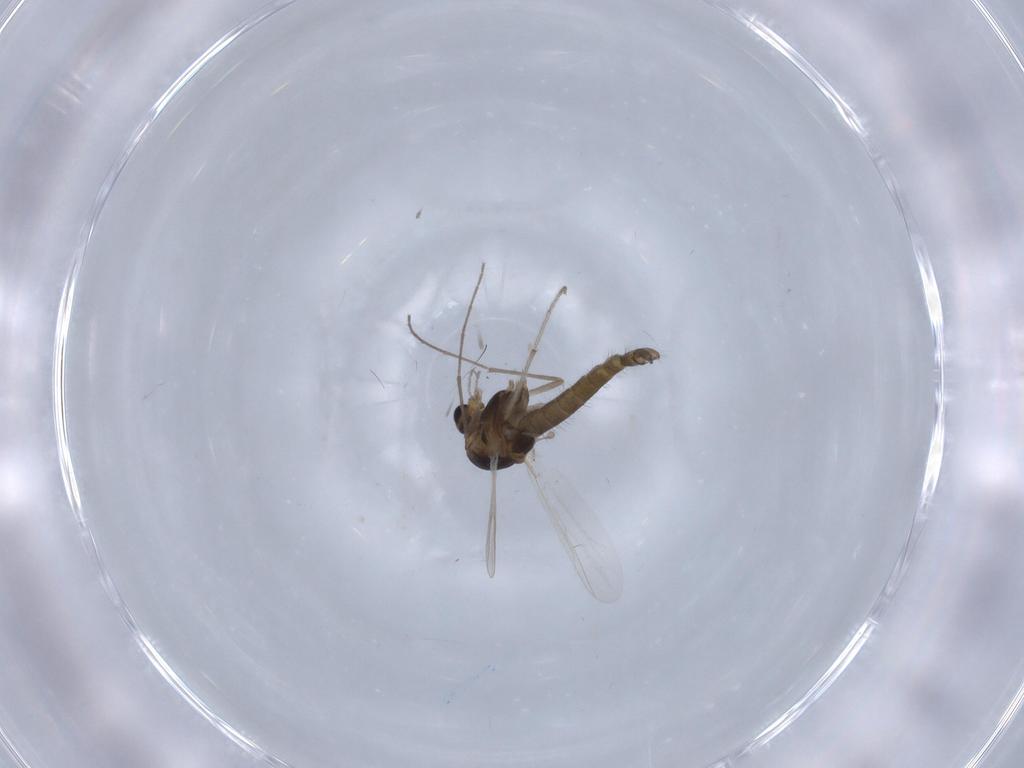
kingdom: Animalia
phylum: Arthropoda
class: Insecta
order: Diptera
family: Chironomidae
